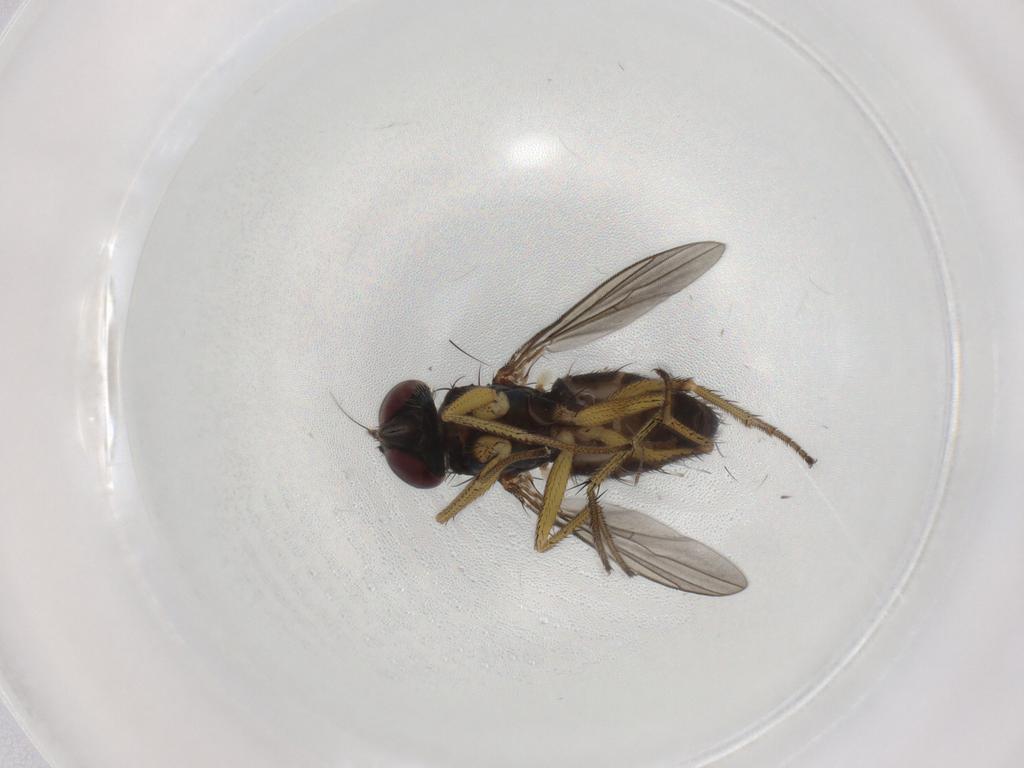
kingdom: Animalia
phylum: Arthropoda
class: Insecta
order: Diptera
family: Dolichopodidae
